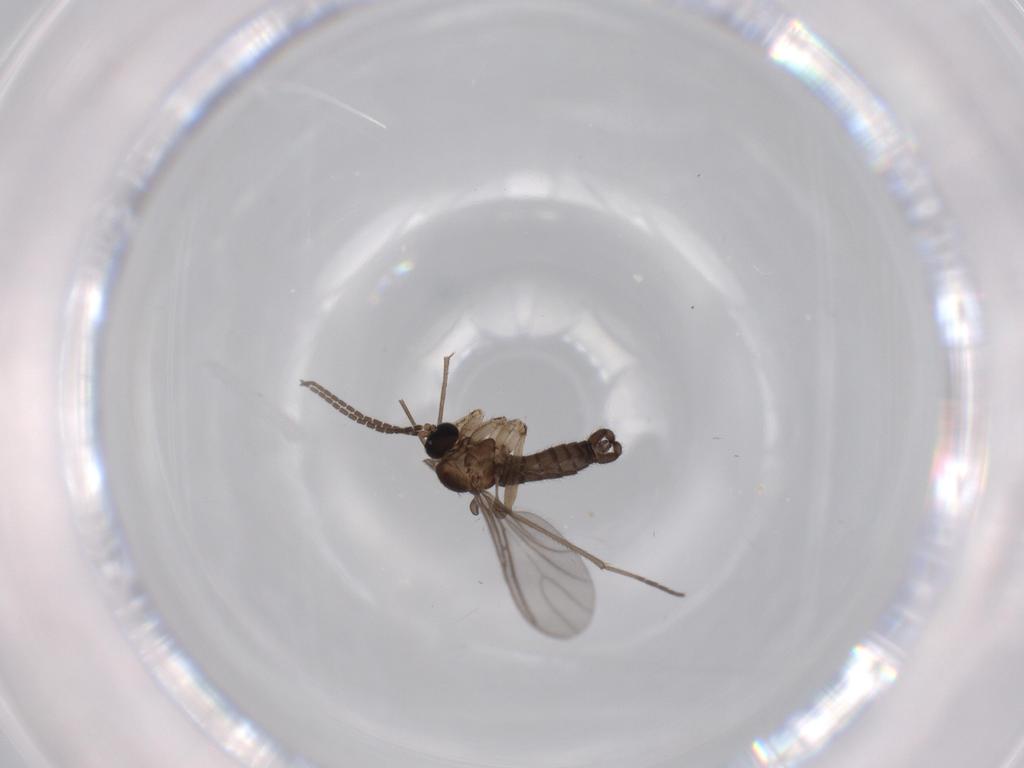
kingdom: Animalia
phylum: Arthropoda
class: Insecta
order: Diptera
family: Sciaridae
